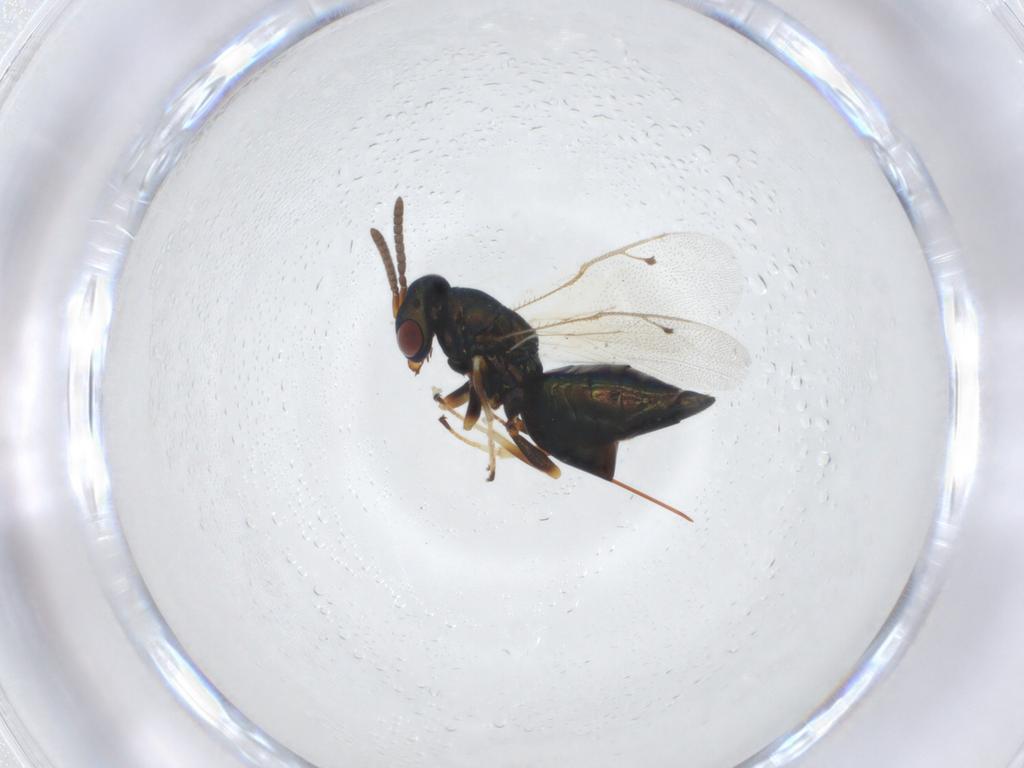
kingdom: Animalia
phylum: Arthropoda
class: Insecta
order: Hymenoptera
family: Pteromalidae
